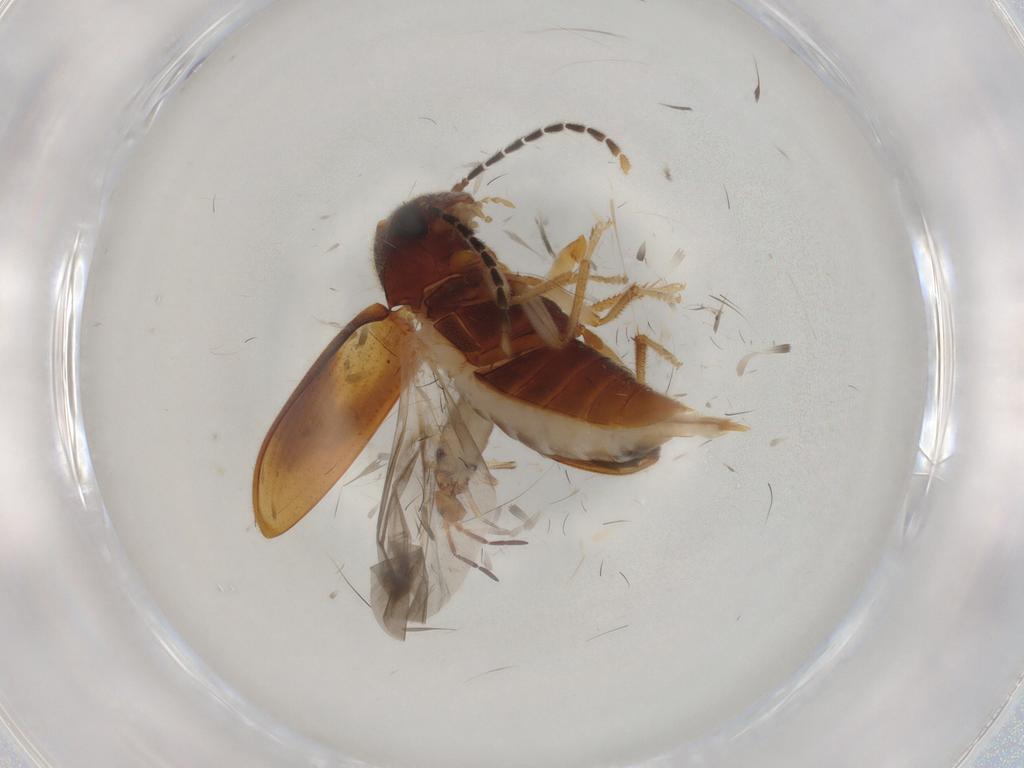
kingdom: Animalia
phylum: Arthropoda
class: Insecta
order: Coleoptera
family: Ptilodactylidae
